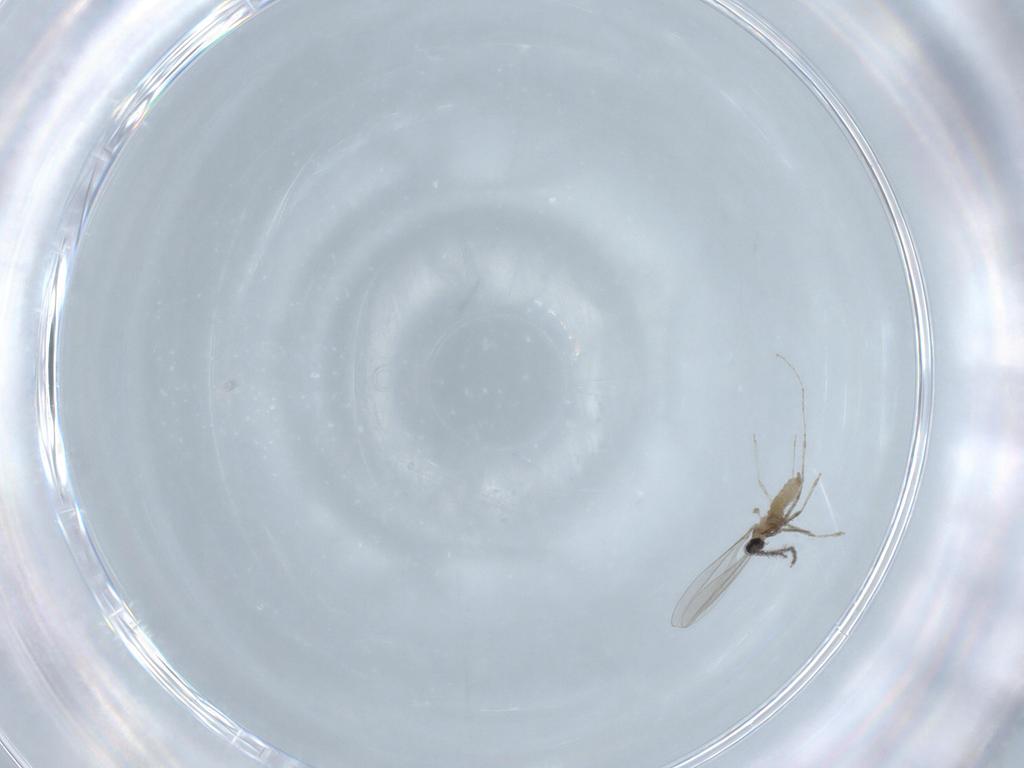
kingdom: Animalia
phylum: Arthropoda
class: Insecta
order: Diptera
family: Cecidomyiidae
